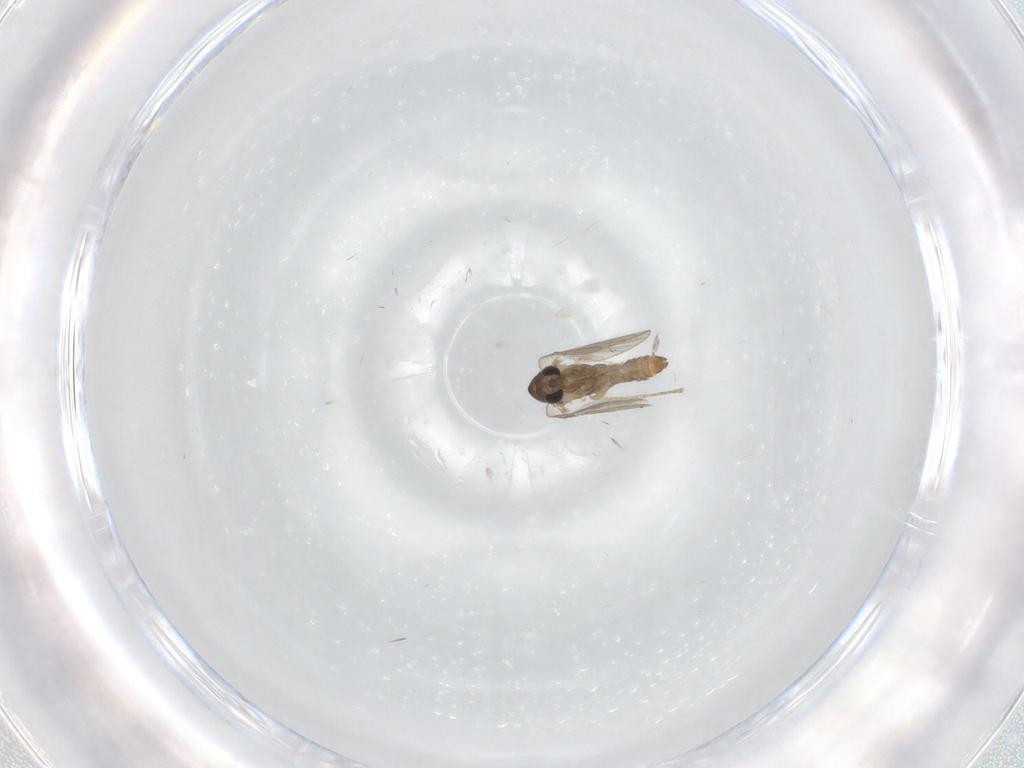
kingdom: Animalia
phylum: Arthropoda
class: Insecta
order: Diptera
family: Psychodidae
